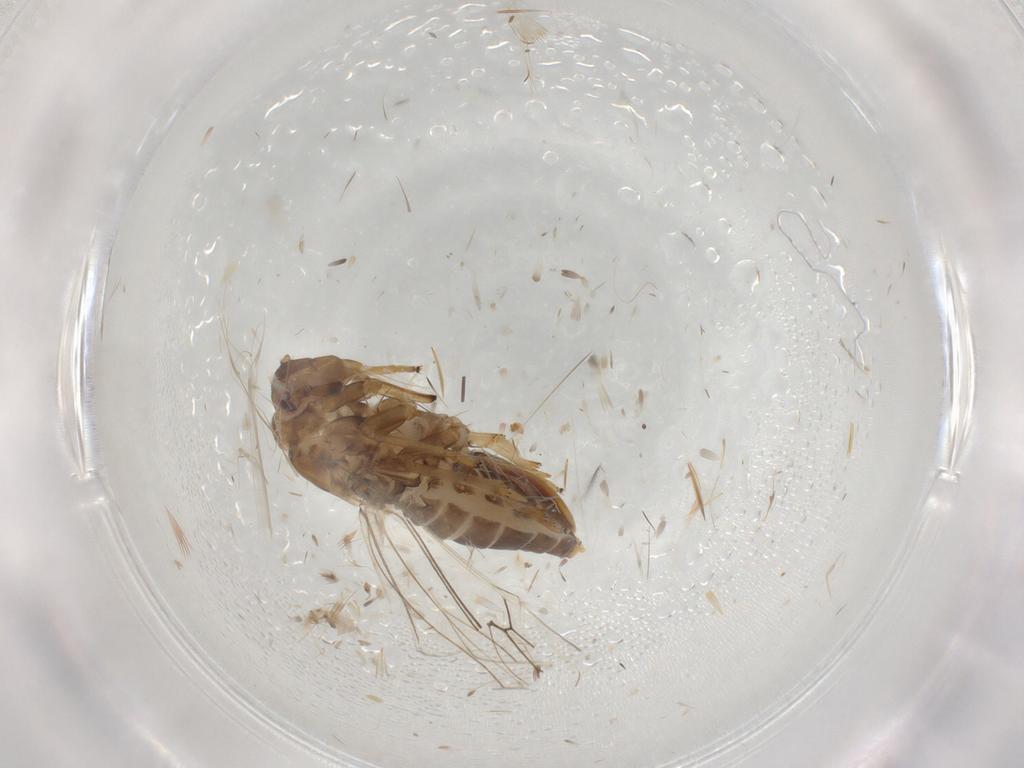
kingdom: Animalia
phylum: Arthropoda
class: Insecta
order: Hemiptera
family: Delphacidae
